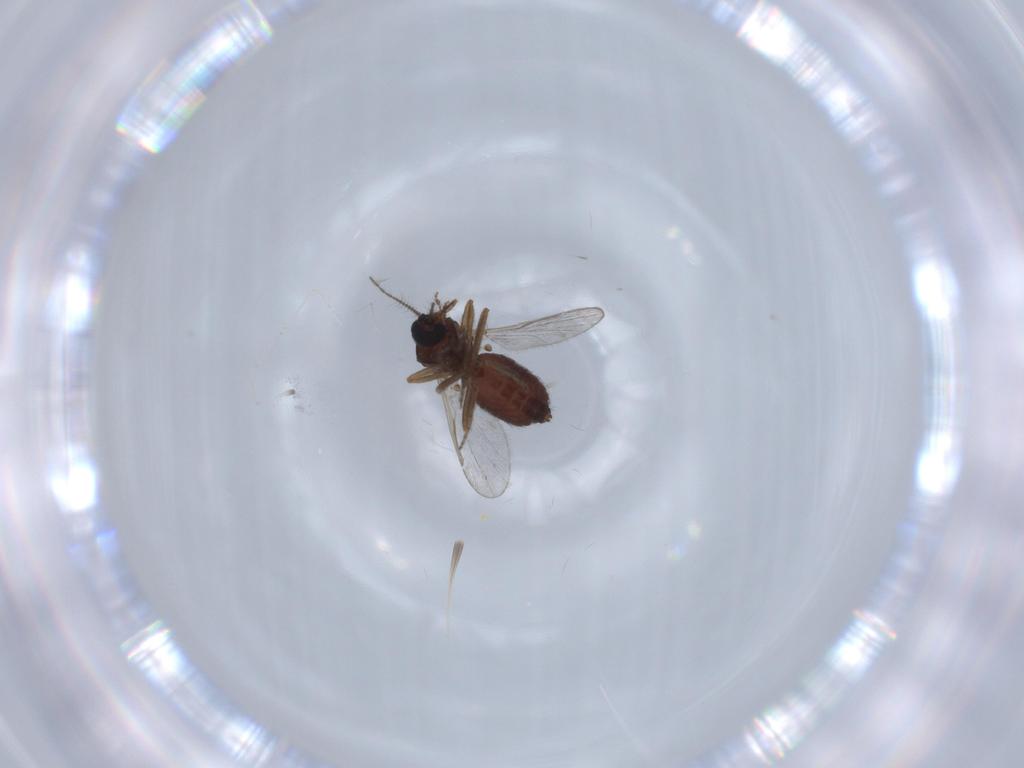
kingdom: Animalia
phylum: Arthropoda
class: Insecta
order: Diptera
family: Ceratopogonidae
